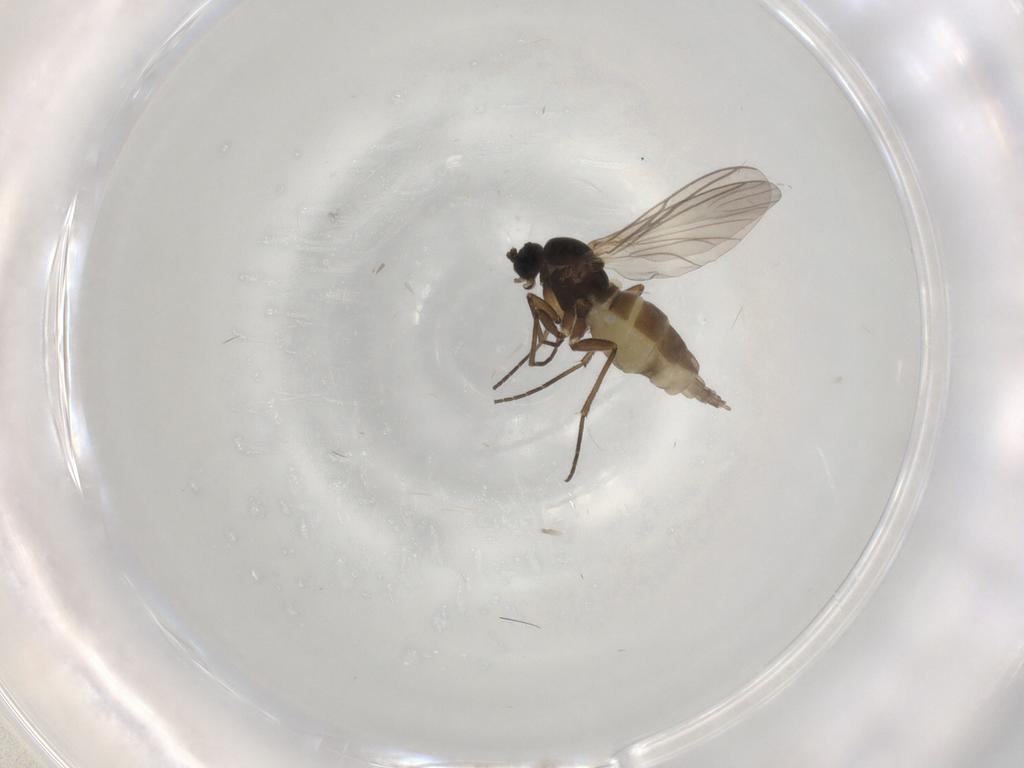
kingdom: Animalia
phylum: Arthropoda
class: Insecta
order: Diptera
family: Sciaridae
